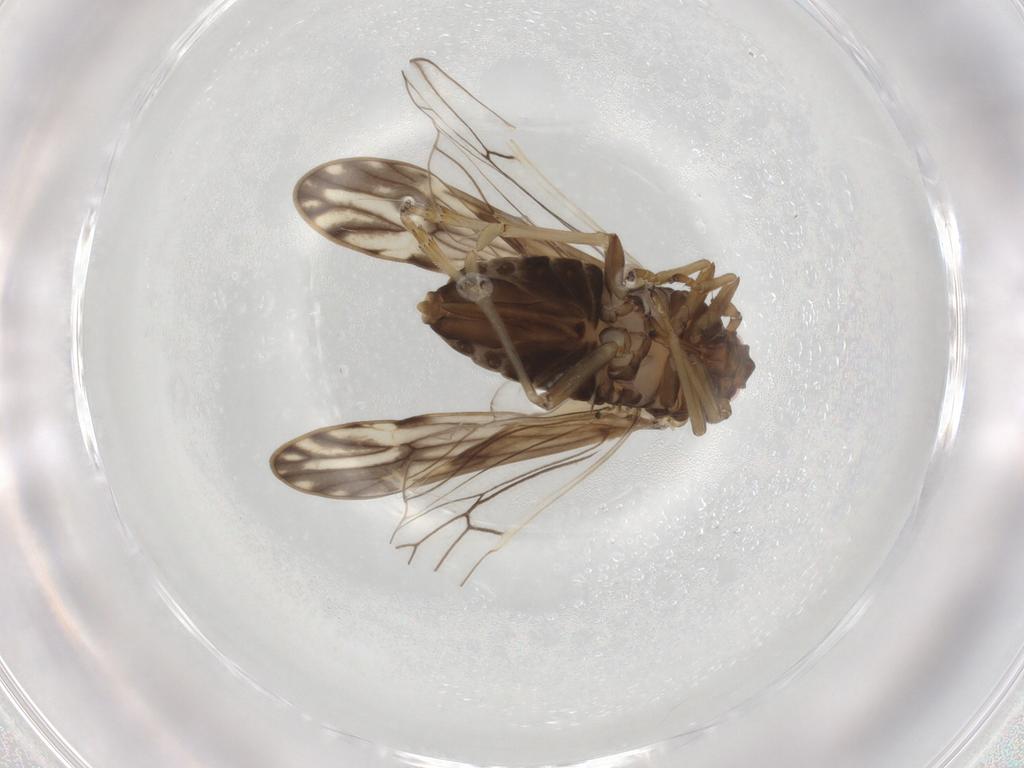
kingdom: Animalia
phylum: Arthropoda
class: Insecta
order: Hemiptera
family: Delphacidae
